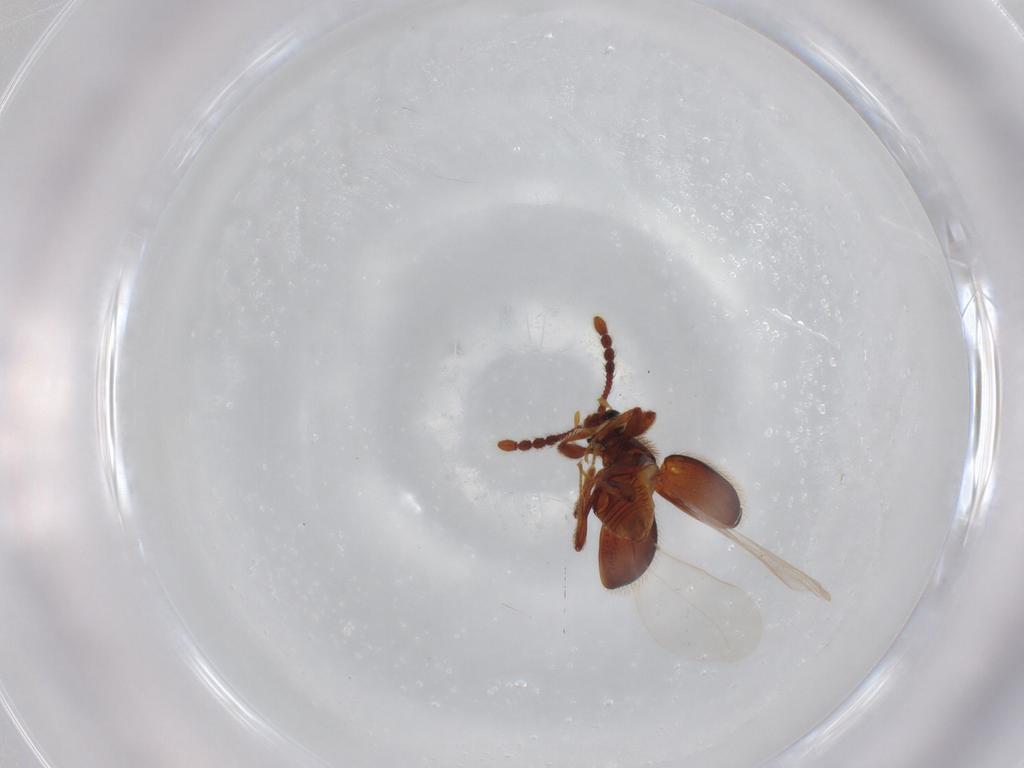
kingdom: Animalia
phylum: Arthropoda
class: Insecta
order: Coleoptera
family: Staphylinidae
